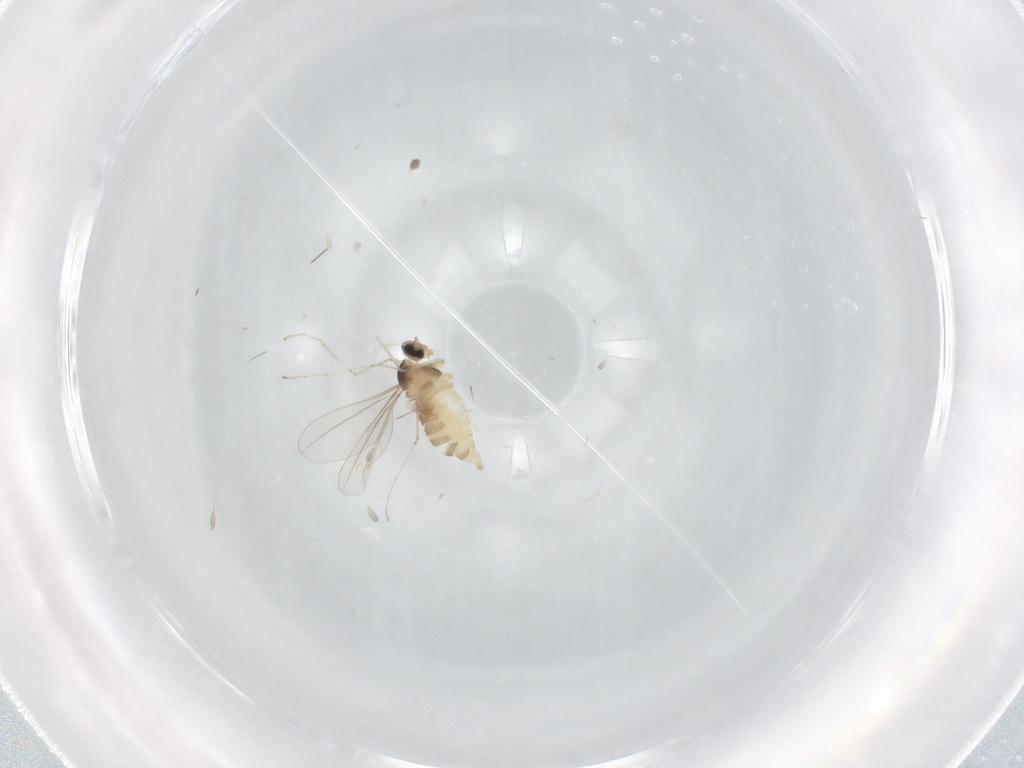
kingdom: Animalia
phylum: Arthropoda
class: Insecta
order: Diptera
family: Cecidomyiidae
